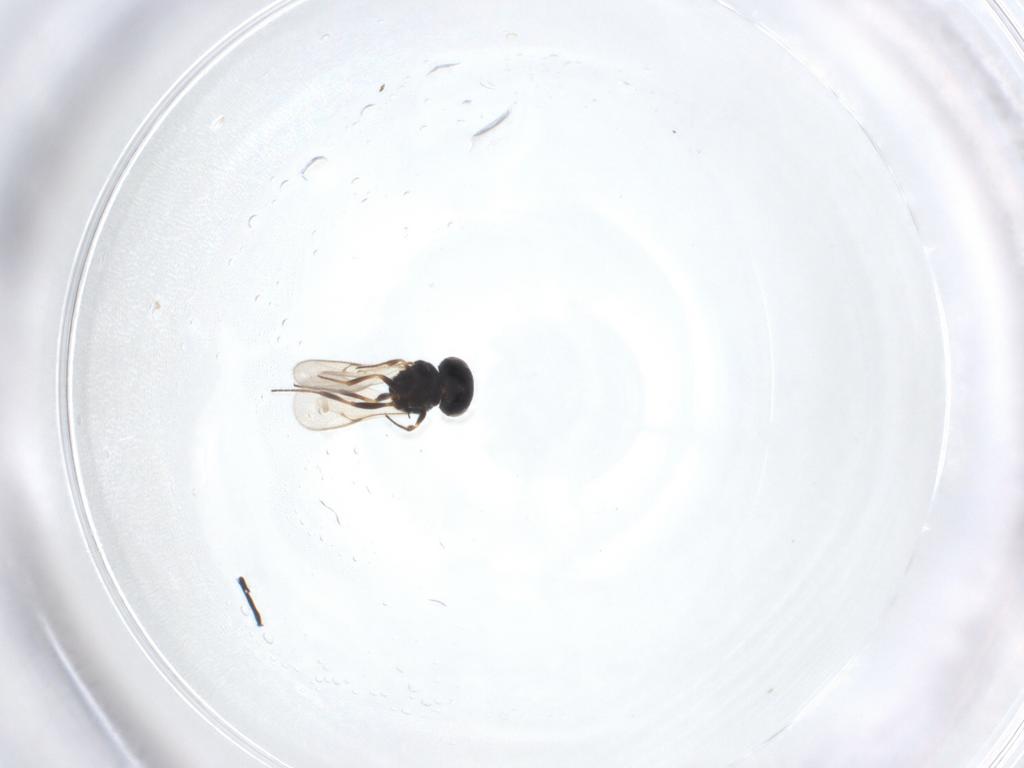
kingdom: Animalia
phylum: Arthropoda
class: Insecta
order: Hymenoptera
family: Scelionidae
